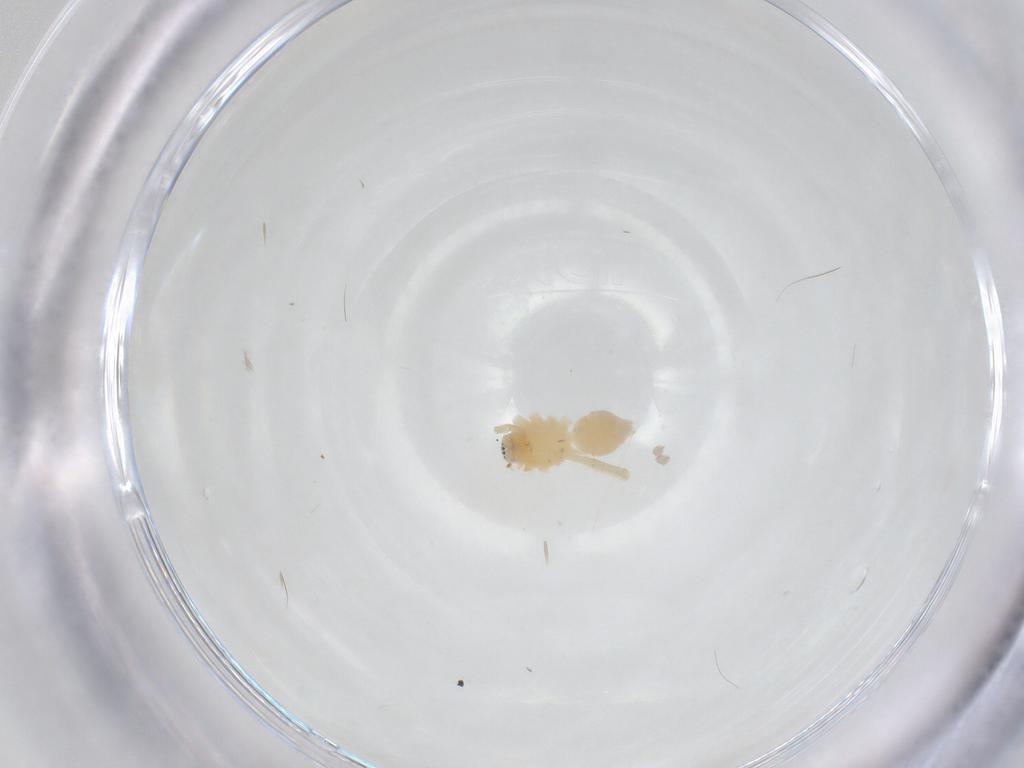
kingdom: Animalia
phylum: Arthropoda
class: Arachnida
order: Araneae
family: Anyphaenidae
